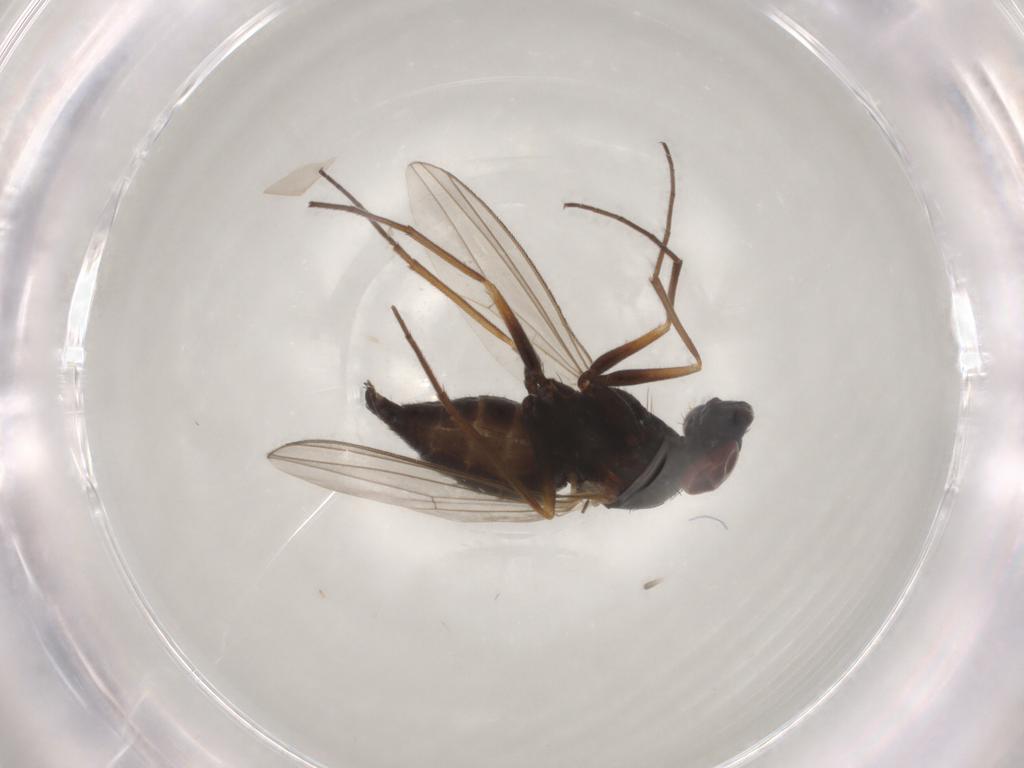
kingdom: Animalia
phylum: Arthropoda
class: Insecta
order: Diptera
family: Dolichopodidae
